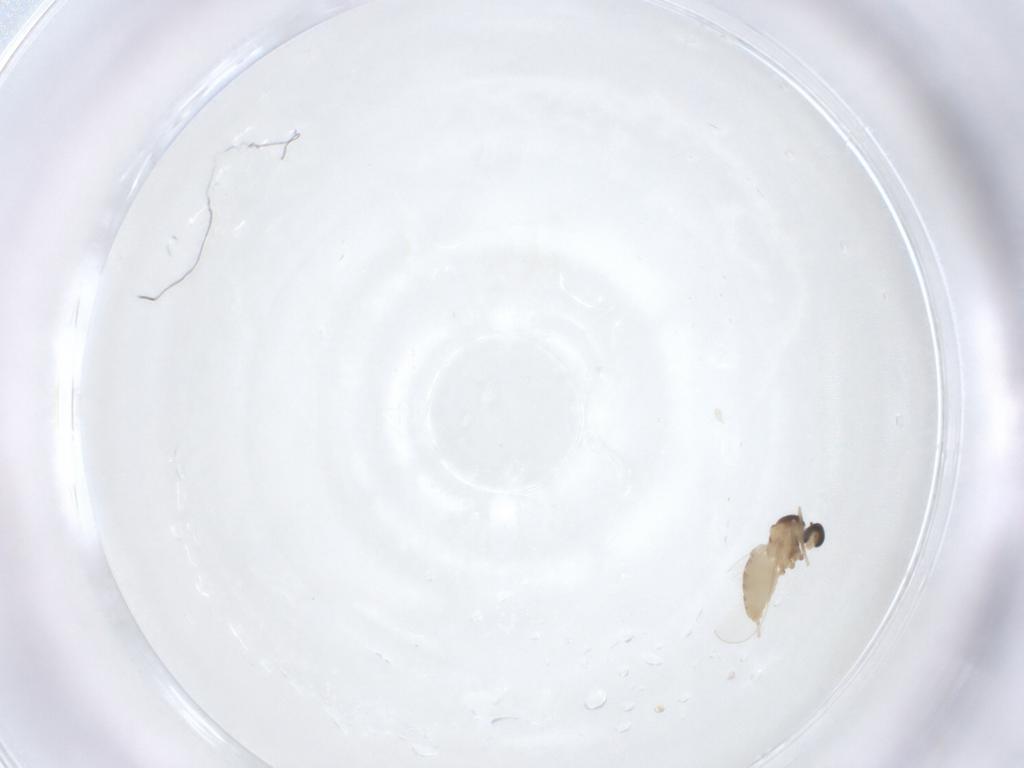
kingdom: Animalia
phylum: Arthropoda
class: Insecta
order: Diptera
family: Cecidomyiidae
